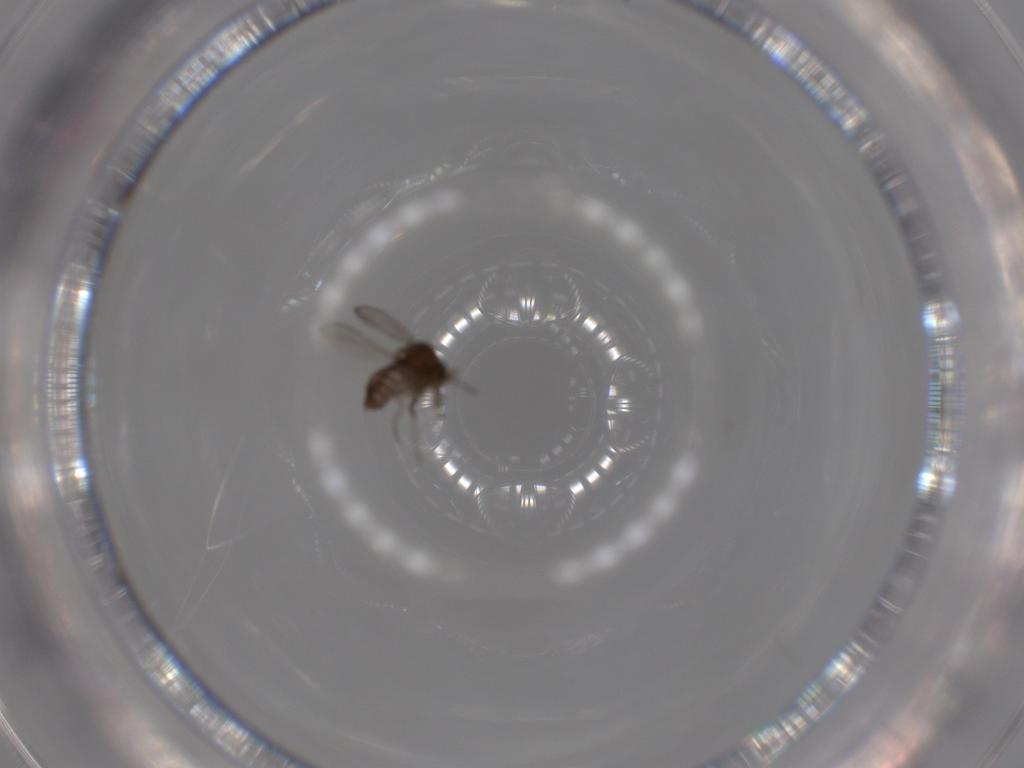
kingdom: Animalia
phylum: Arthropoda
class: Insecta
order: Diptera
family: Ceratopogonidae
